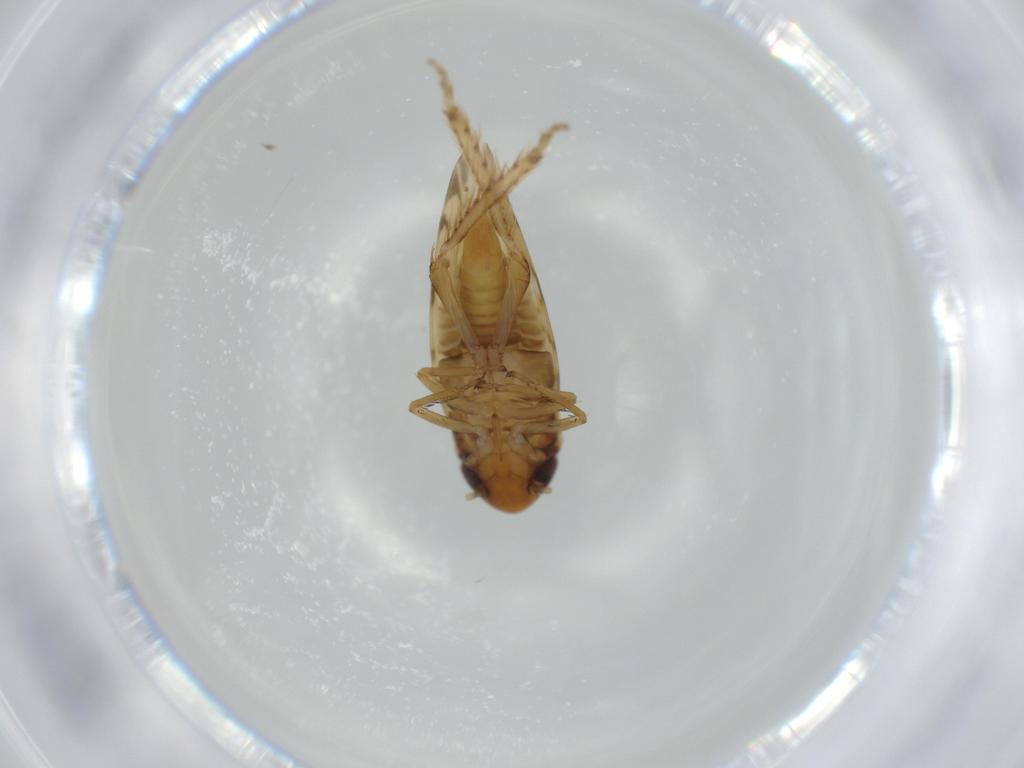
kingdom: Animalia
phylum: Arthropoda
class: Insecta
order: Hemiptera
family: Cicadellidae
